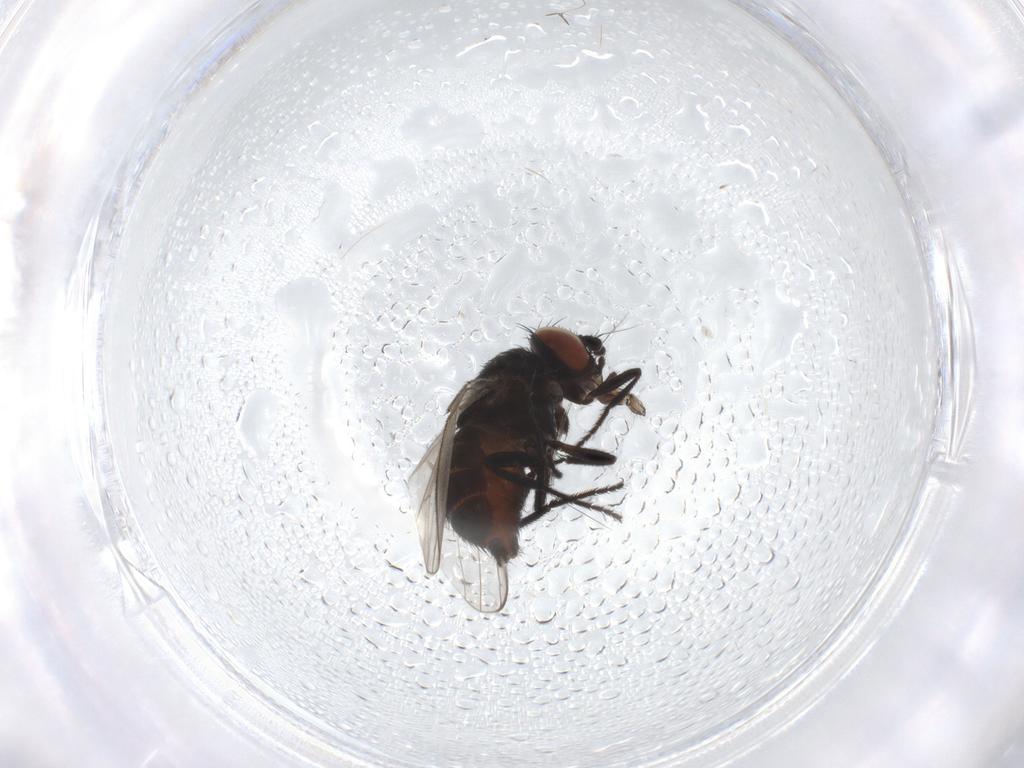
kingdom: Animalia
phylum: Arthropoda
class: Insecta
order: Diptera
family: Milichiidae
